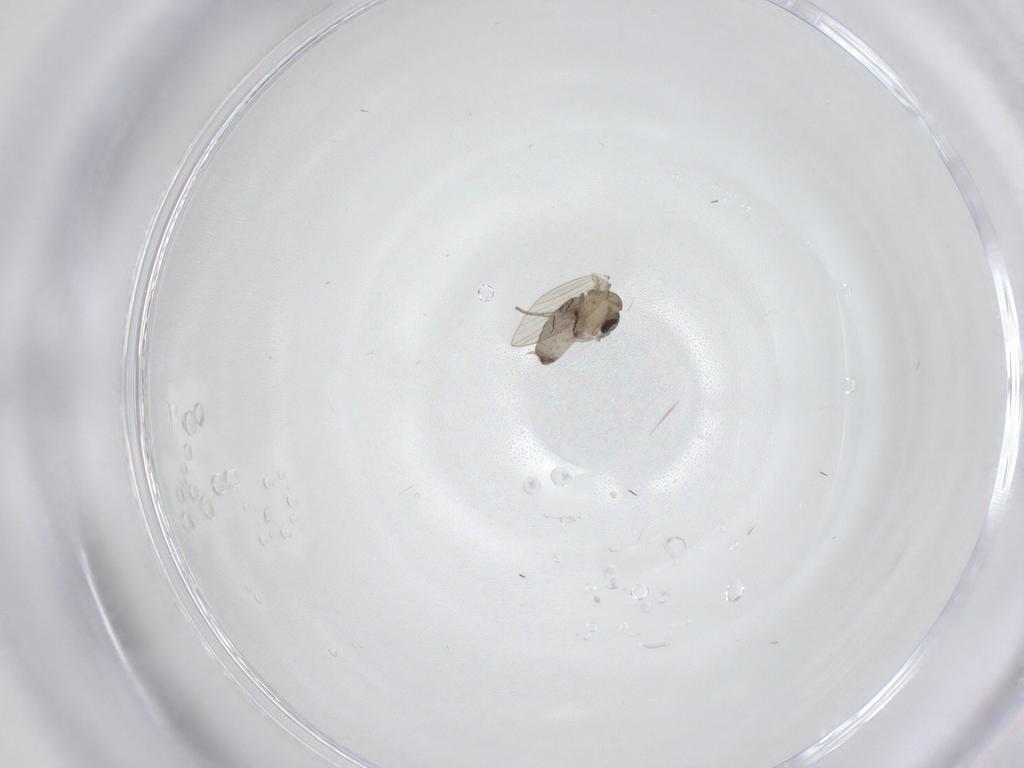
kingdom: Animalia
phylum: Arthropoda
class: Insecta
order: Diptera
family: Psychodidae
